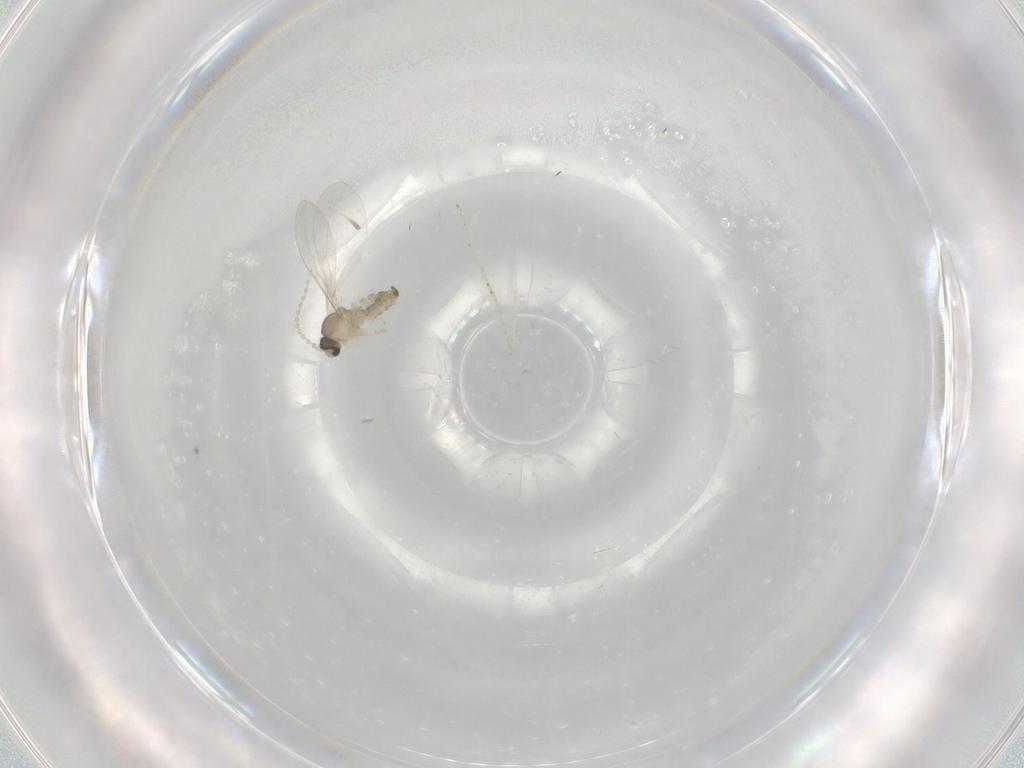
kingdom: Animalia
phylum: Arthropoda
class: Insecta
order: Diptera
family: Cecidomyiidae
